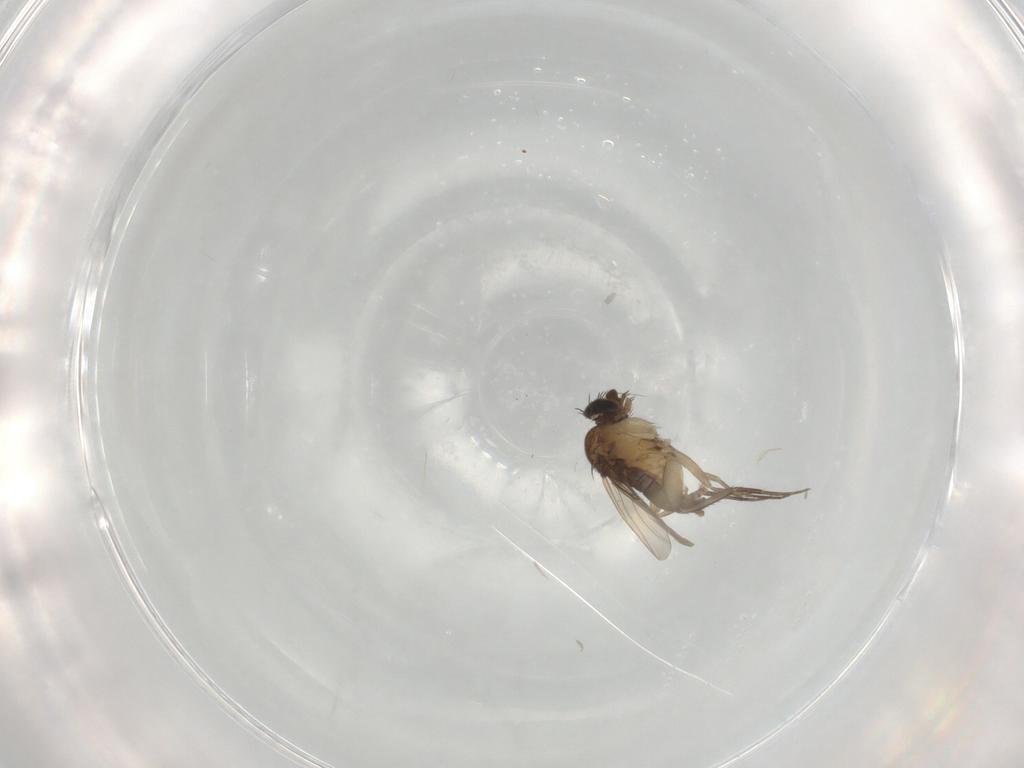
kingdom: Animalia
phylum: Arthropoda
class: Insecta
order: Diptera
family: Phoridae
